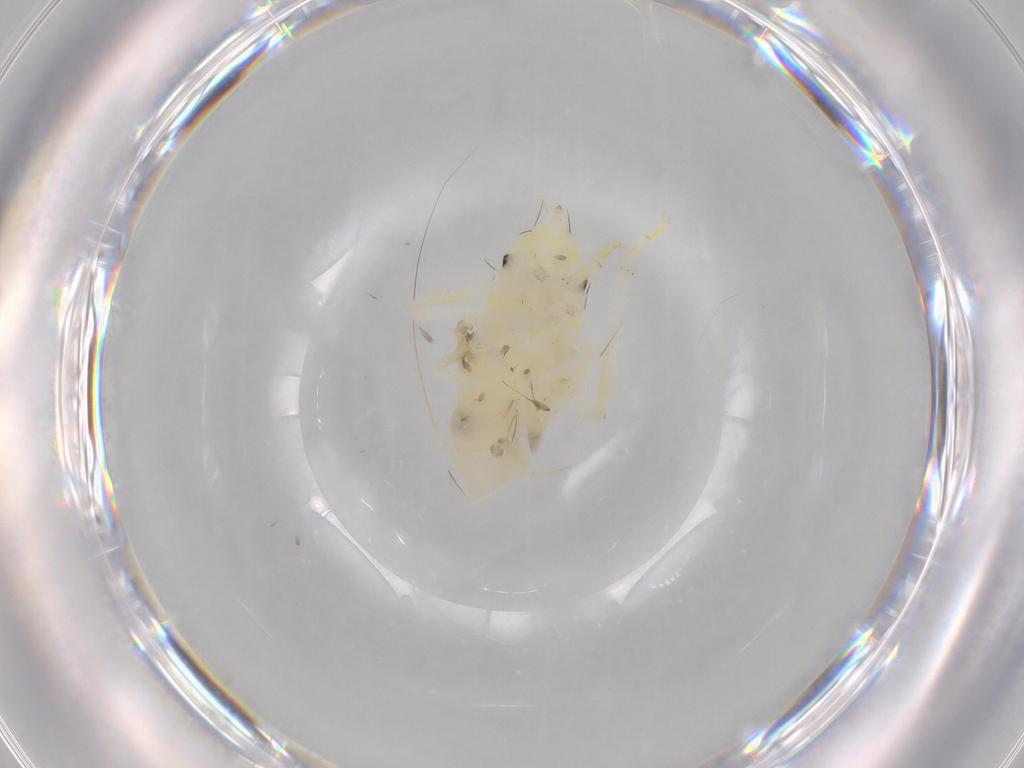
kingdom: Animalia
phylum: Arthropoda
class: Insecta
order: Hemiptera
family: Cicadellidae
